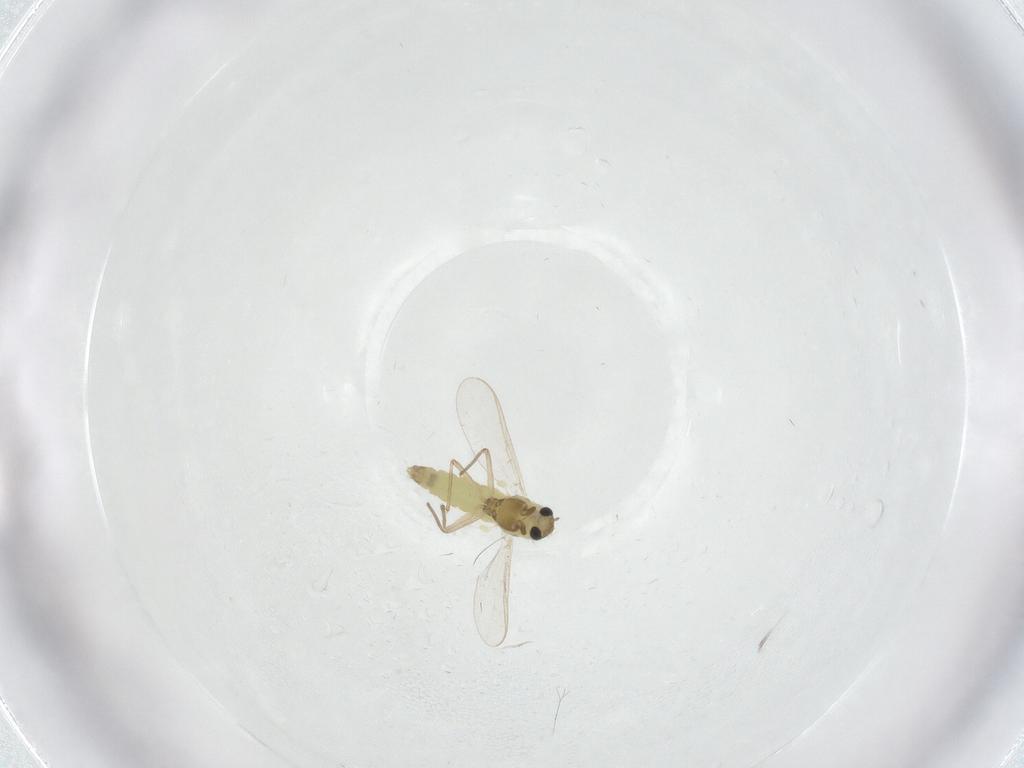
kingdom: Animalia
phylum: Arthropoda
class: Insecta
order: Diptera
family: Chironomidae
